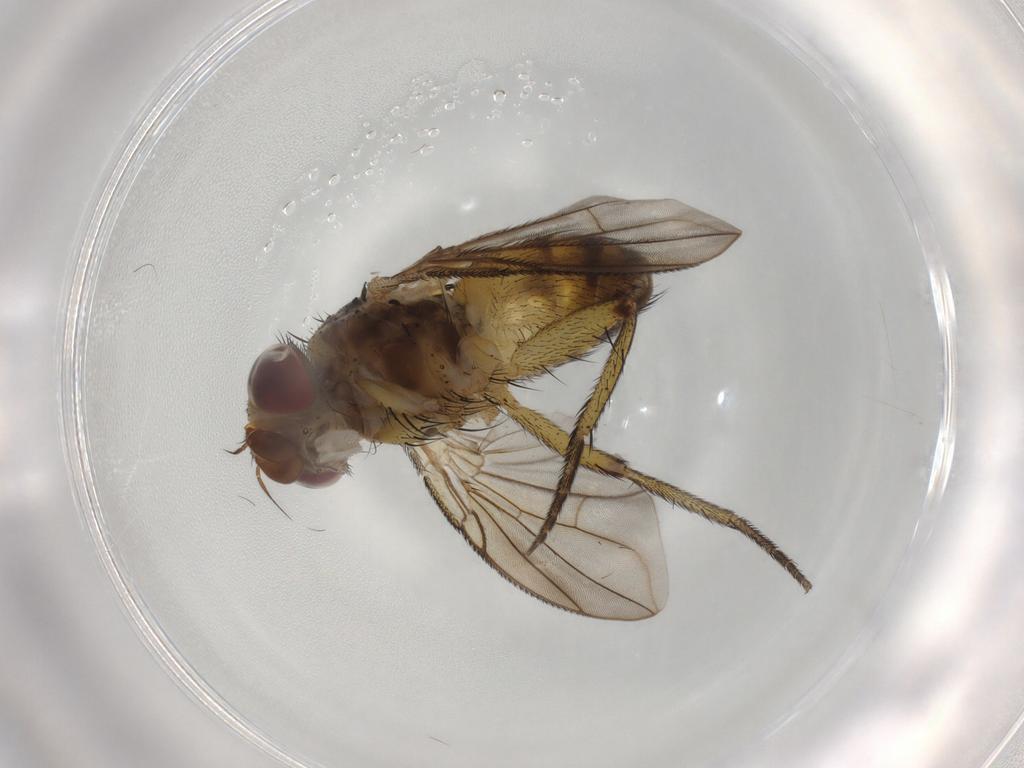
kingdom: Animalia
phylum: Arthropoda
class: Insecta
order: Diptera
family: Tachinidae
